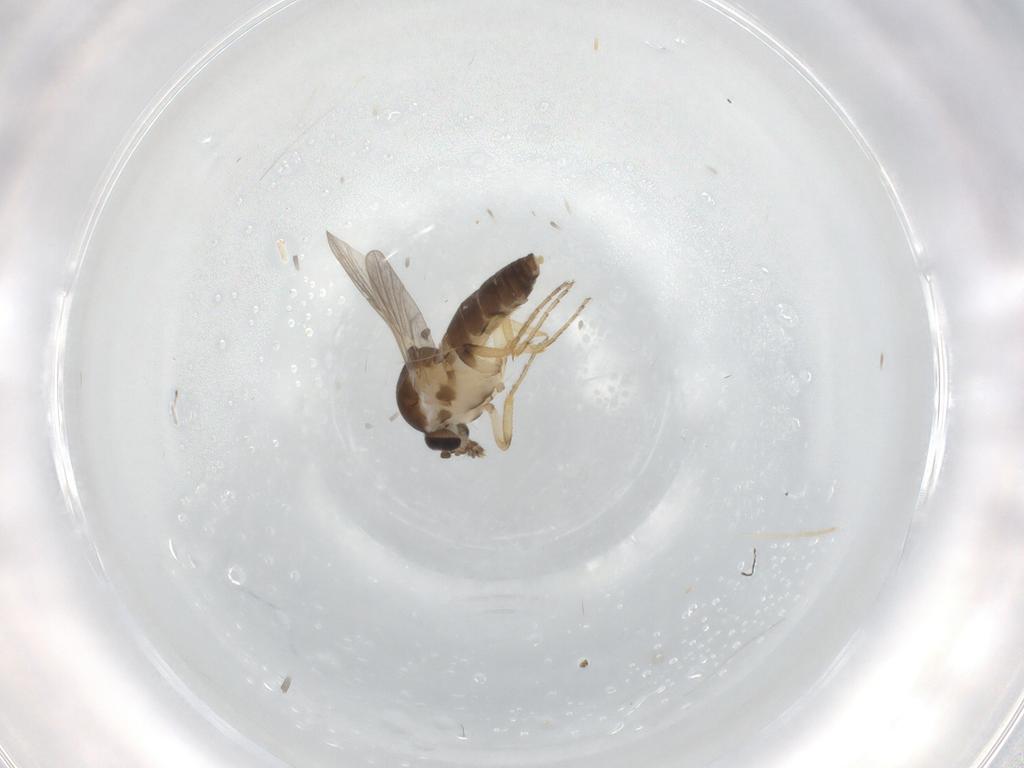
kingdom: Animalia
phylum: Arthropoda
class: Insecta
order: Diptera
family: Ceratopogonidae
